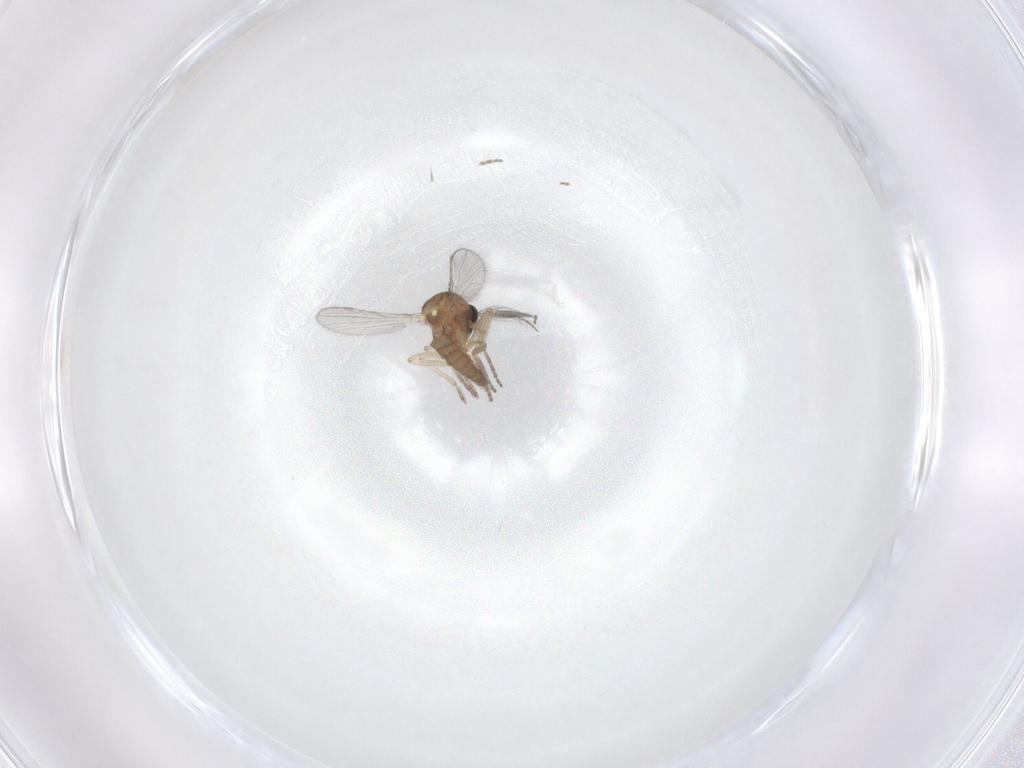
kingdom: Animalia
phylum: Arthropoda
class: Insecta
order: Diptera
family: Ceratopogonidae
